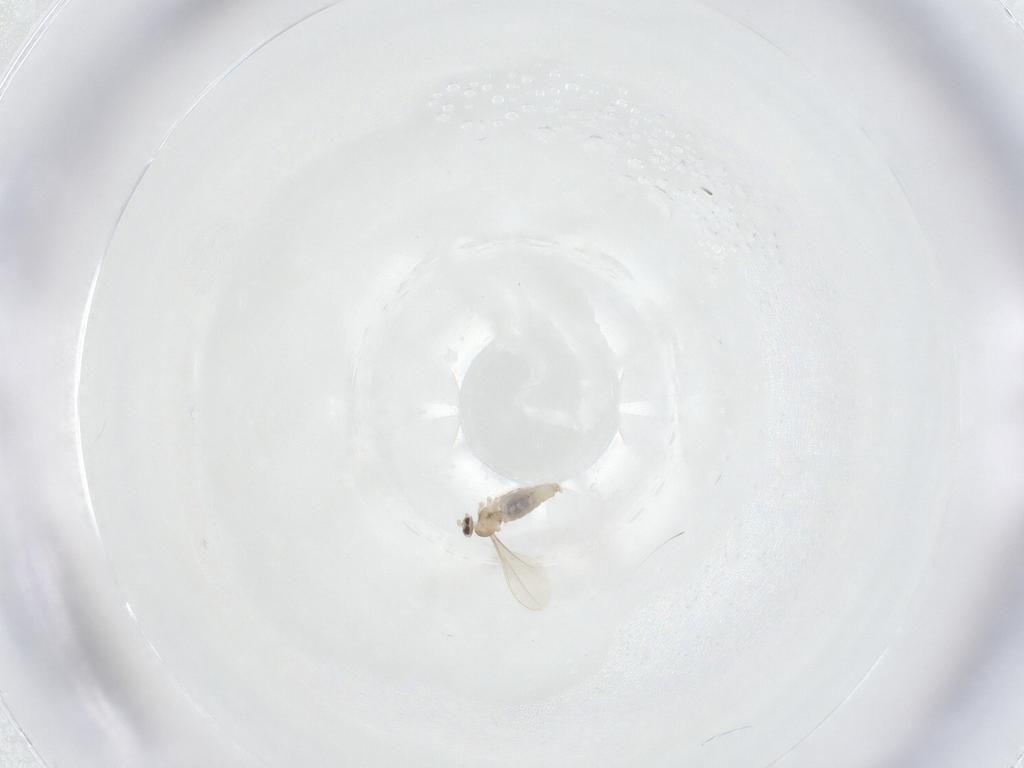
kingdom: Animalia
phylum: Arthropoda
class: Insecta
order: Diptera
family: Cecidomyiidae
